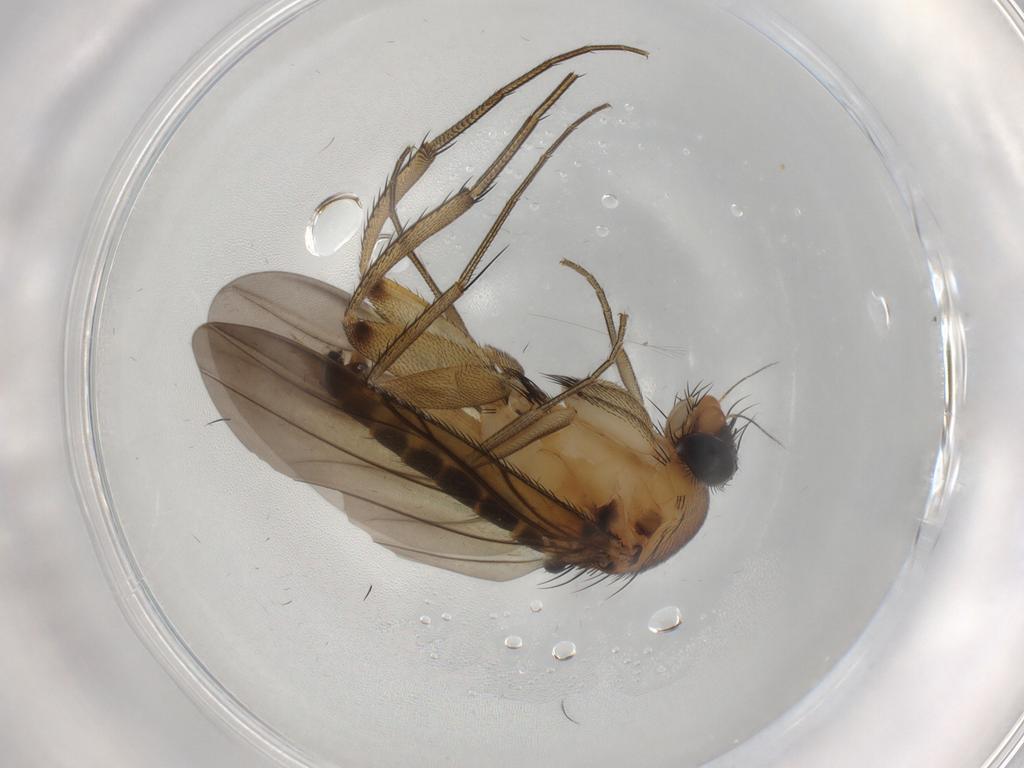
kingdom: Animalia
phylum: Arthropoda
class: Insecta
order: Diptera
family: Phoridae
